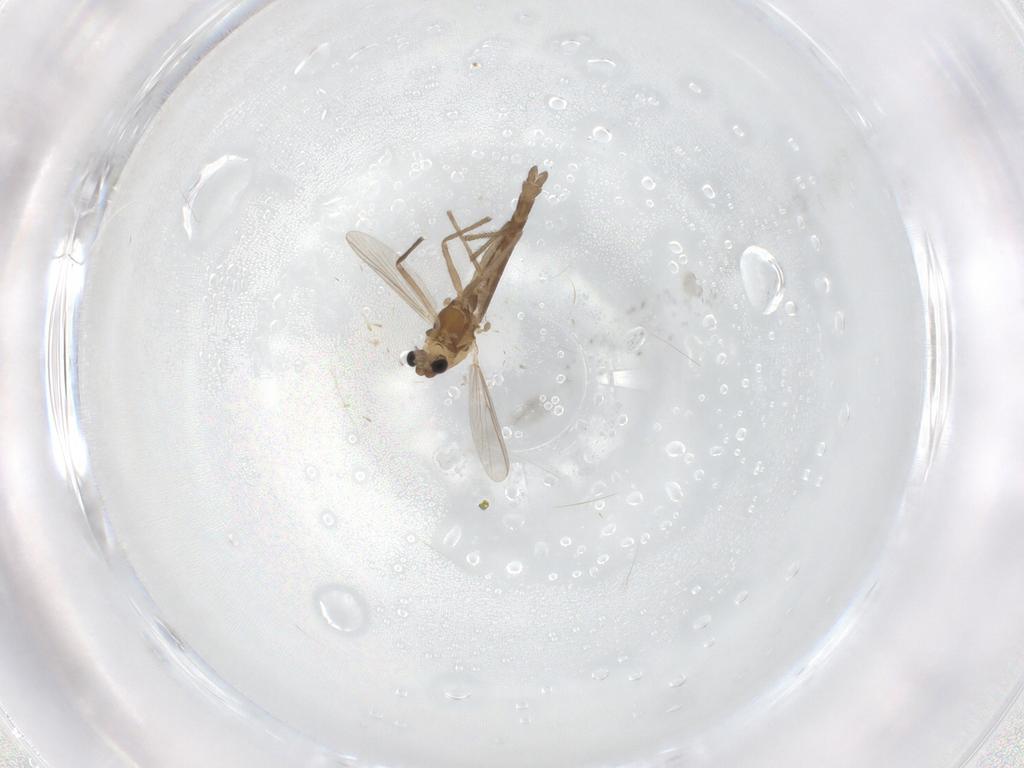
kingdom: Animalia
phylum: Arthropoda
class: Insecta
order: Diptera
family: Chironomidae
